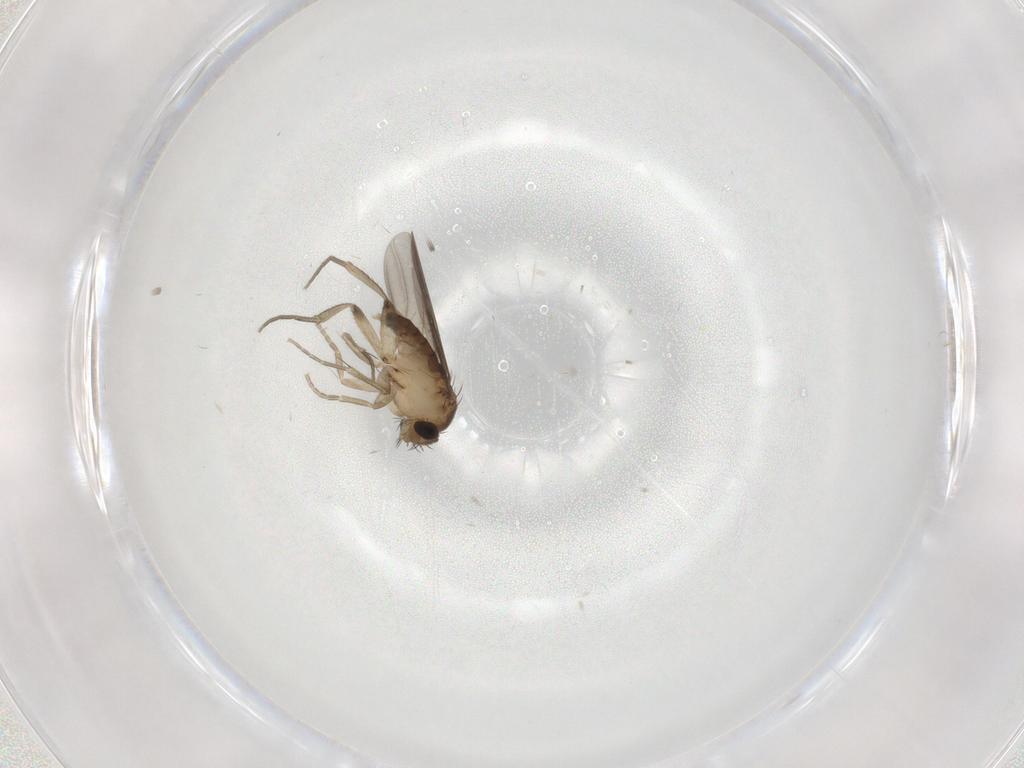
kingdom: Animalia
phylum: Arthropoda
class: Insecta
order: Diptera
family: Phoridae
